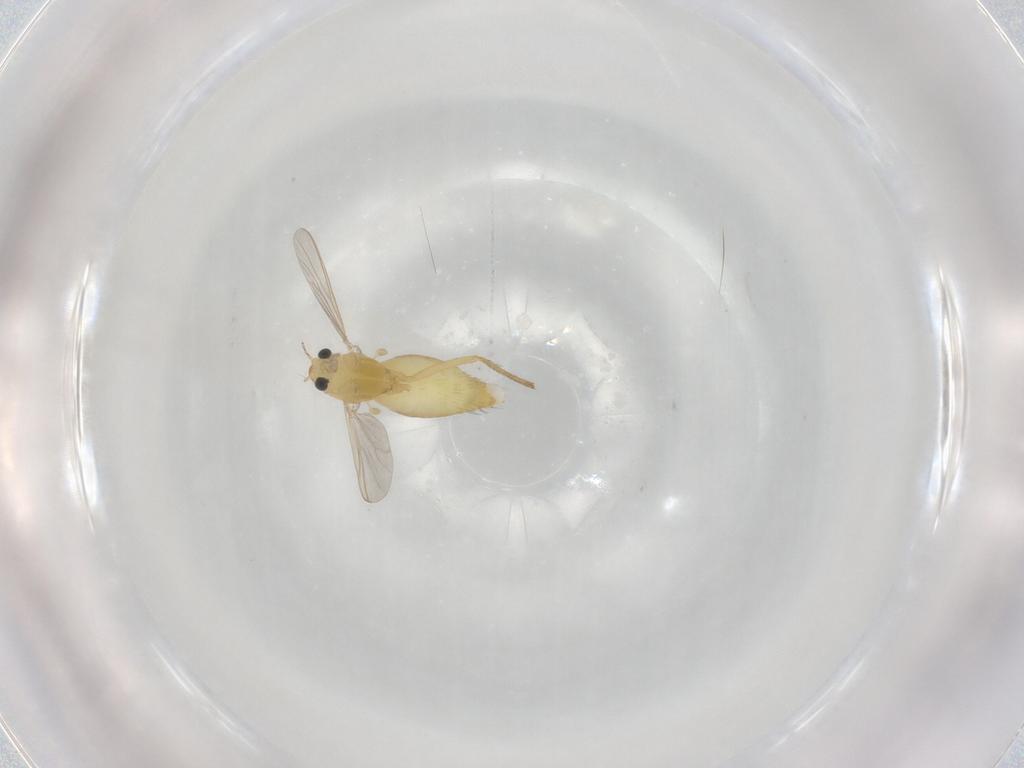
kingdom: Animalia
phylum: Arthropoda
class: Insecta
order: Diptera
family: Chironomidae
